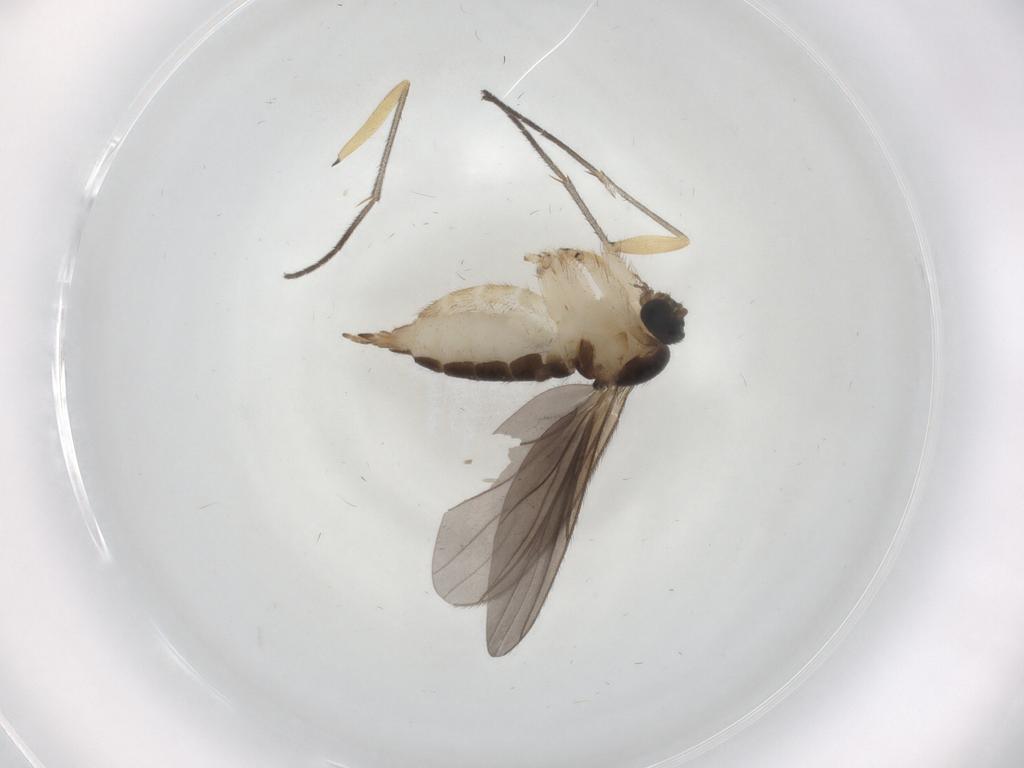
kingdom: Animalia
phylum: Arthropoda
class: Insecta
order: Diptera
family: Sciaridae
